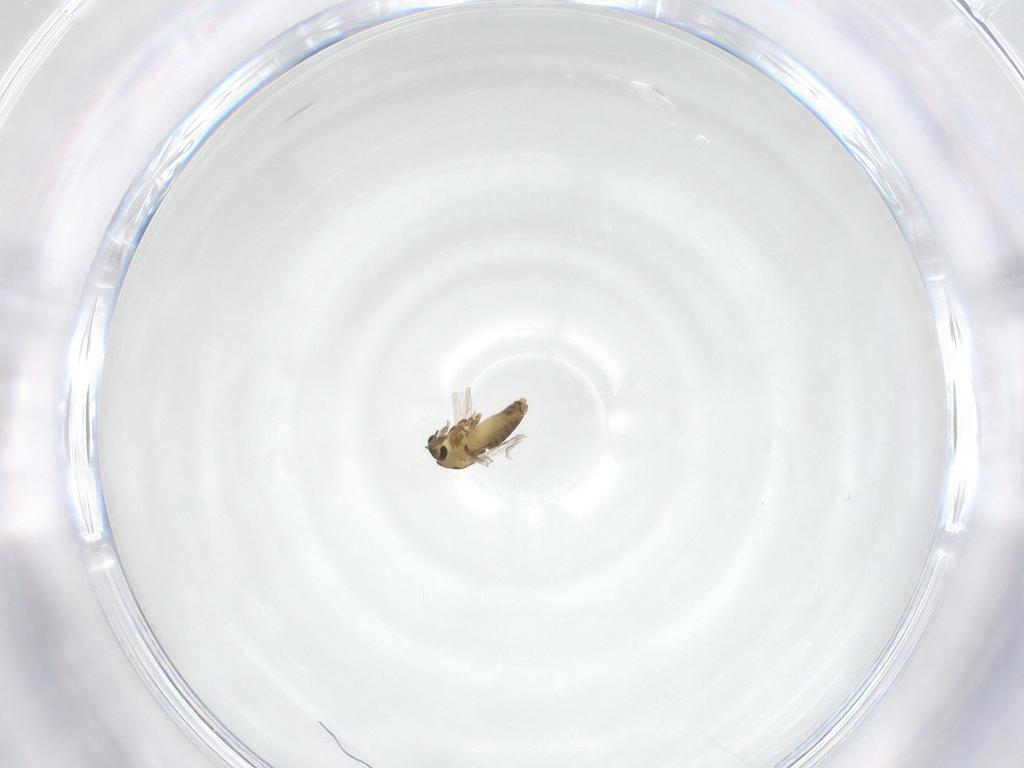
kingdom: Animalia
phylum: Arthropoda
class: Insecta
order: Diptera
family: Chironomidae
